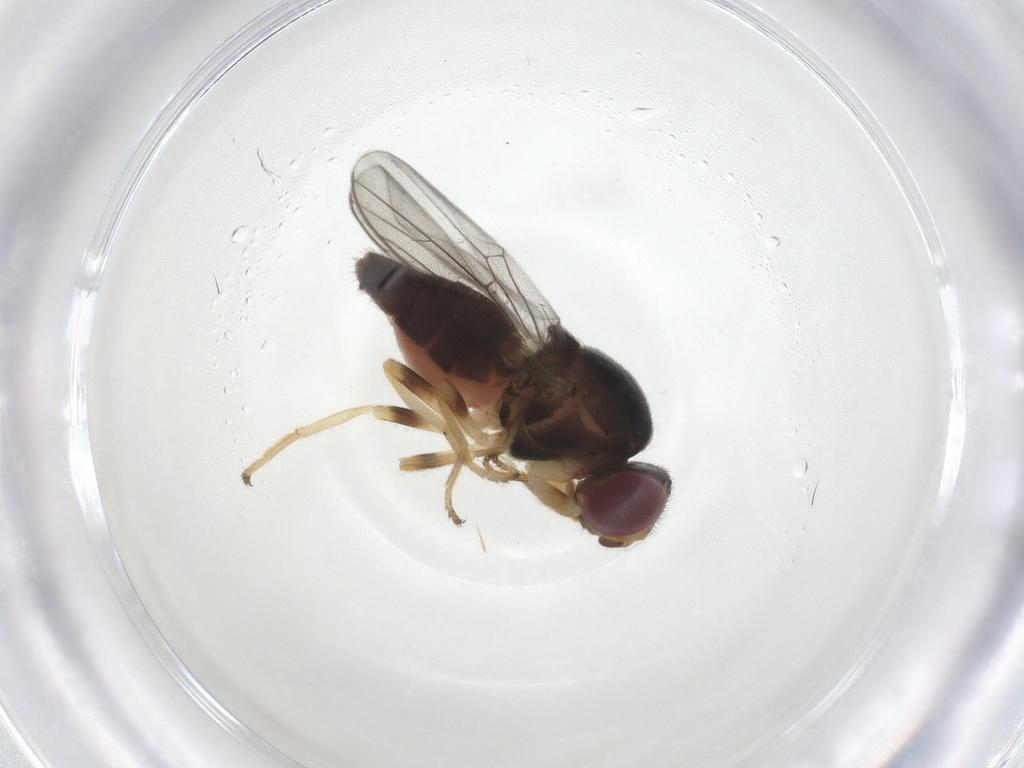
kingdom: Animalia
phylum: Arthropoda
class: Insecta
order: Diptera
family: Chloropidae
